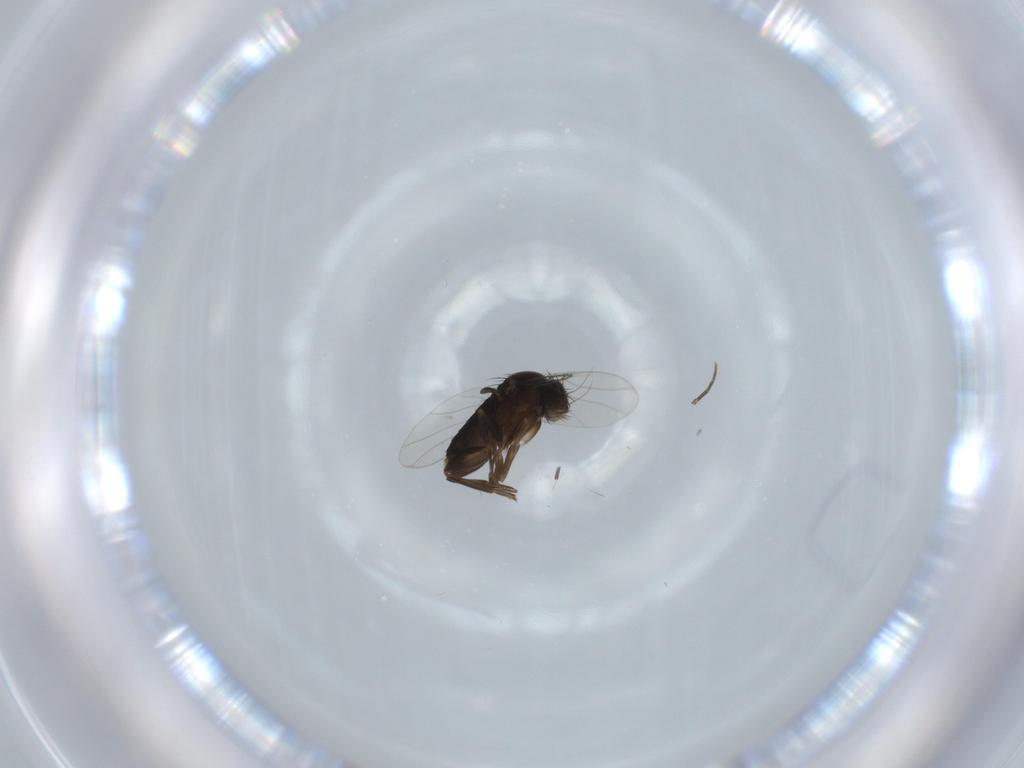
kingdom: Animalia
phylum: Arthropoda
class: Insecta
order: Diptera
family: Phoridae
